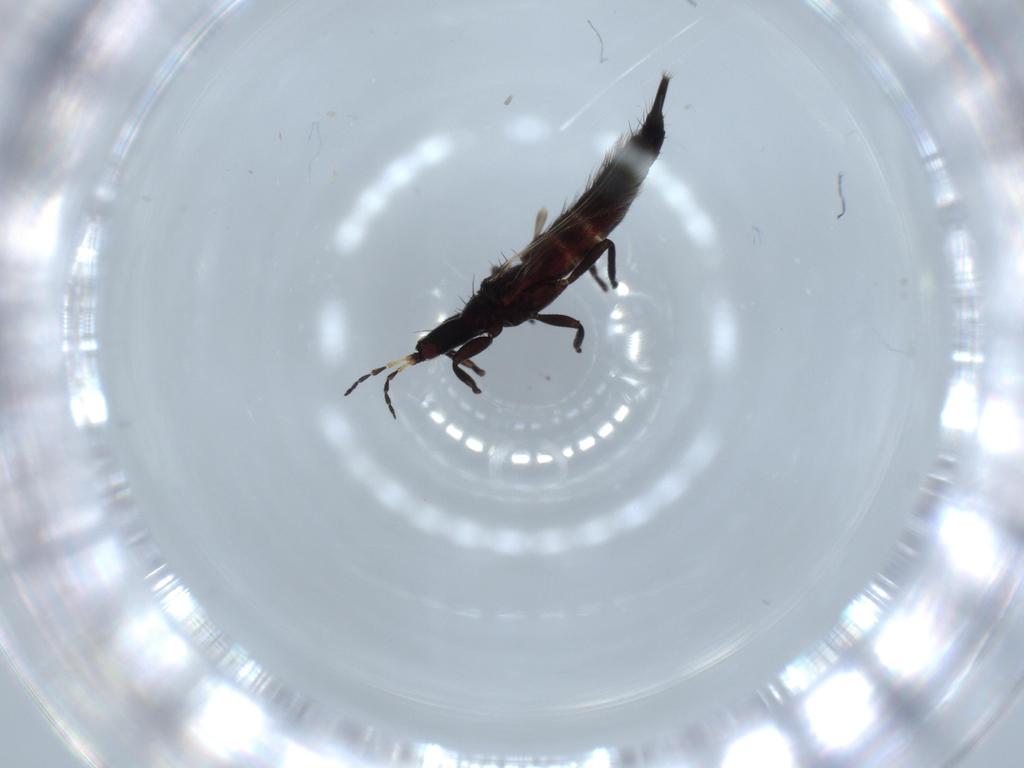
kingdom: Animalia
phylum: Arthropoda
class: Insecta
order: Thysanoptera
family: Phlaeothripidae
